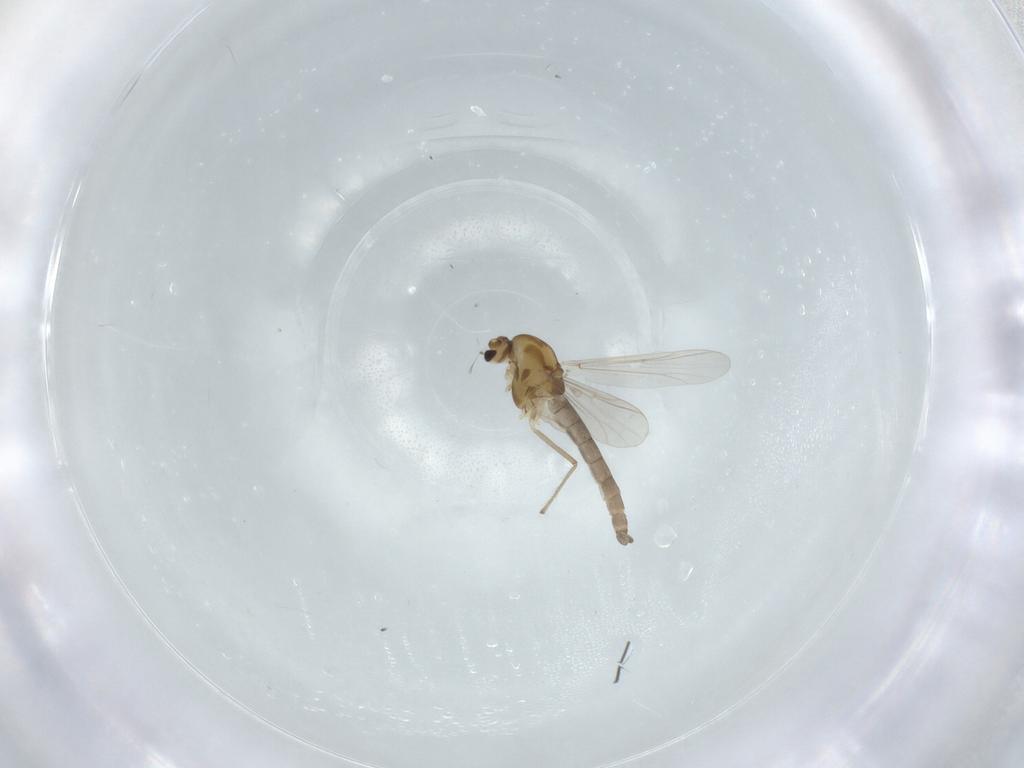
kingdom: Animalia
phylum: Arthropoda
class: Insecta
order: Diptera
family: Chironomidae
